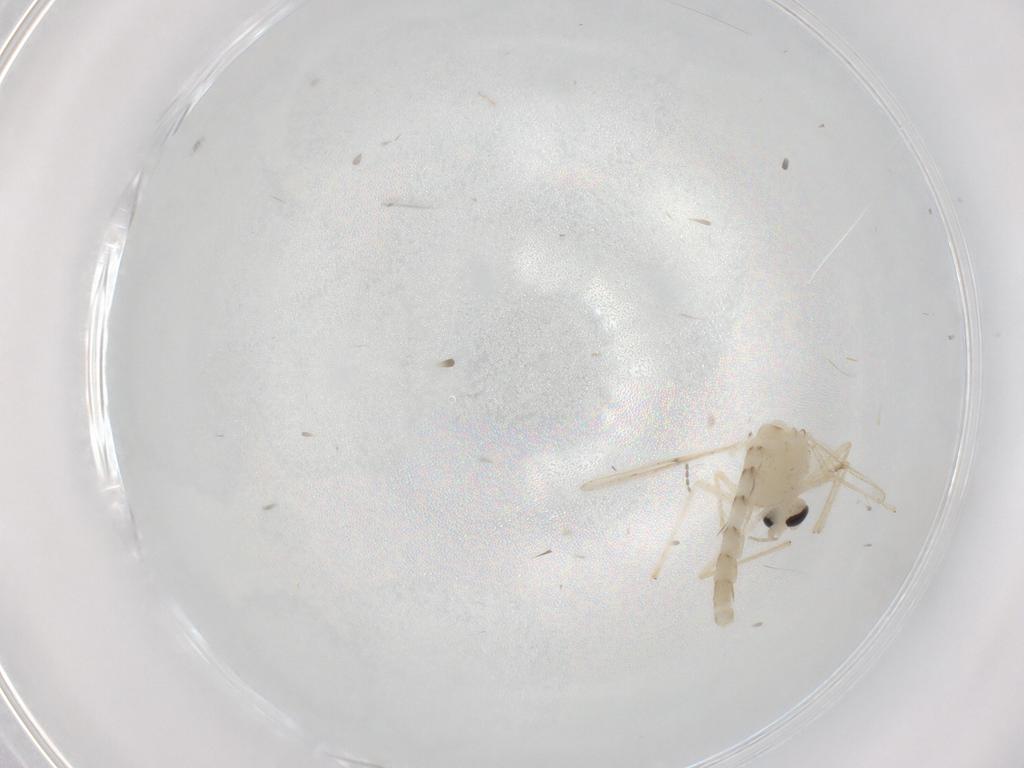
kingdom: Animalia
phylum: Arthropoda
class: Insecta
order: Diptera
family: Chironomidae
